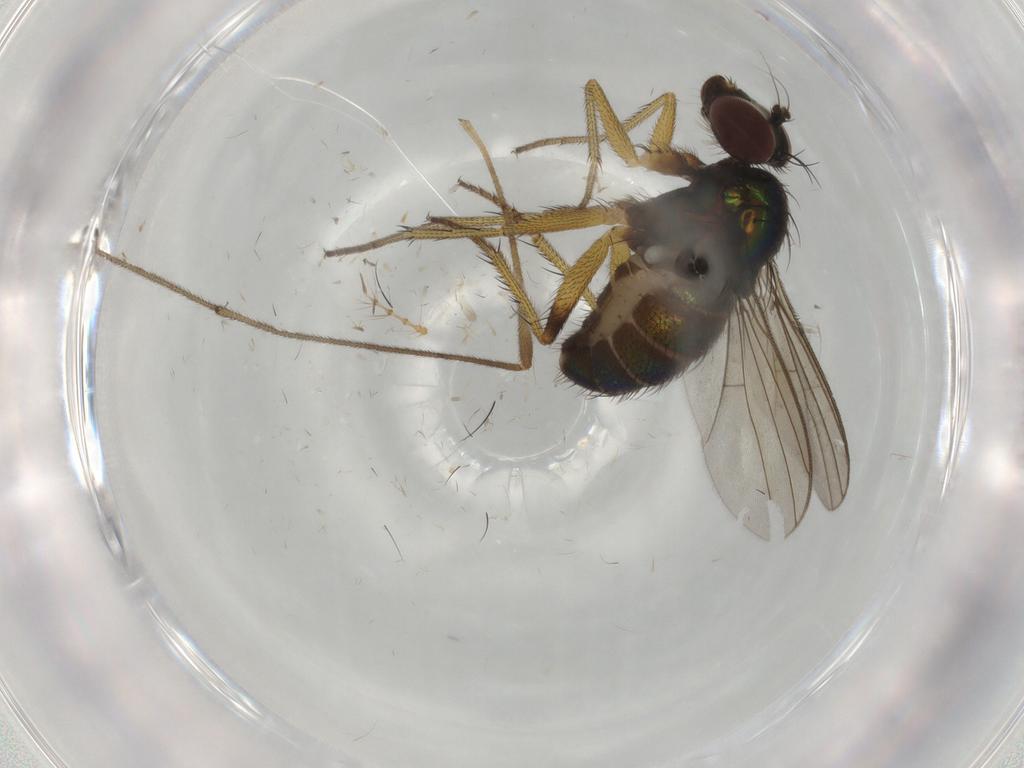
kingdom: Animalia
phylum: Arthropoda
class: Insecta
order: Diptera
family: Dolichopodidae
